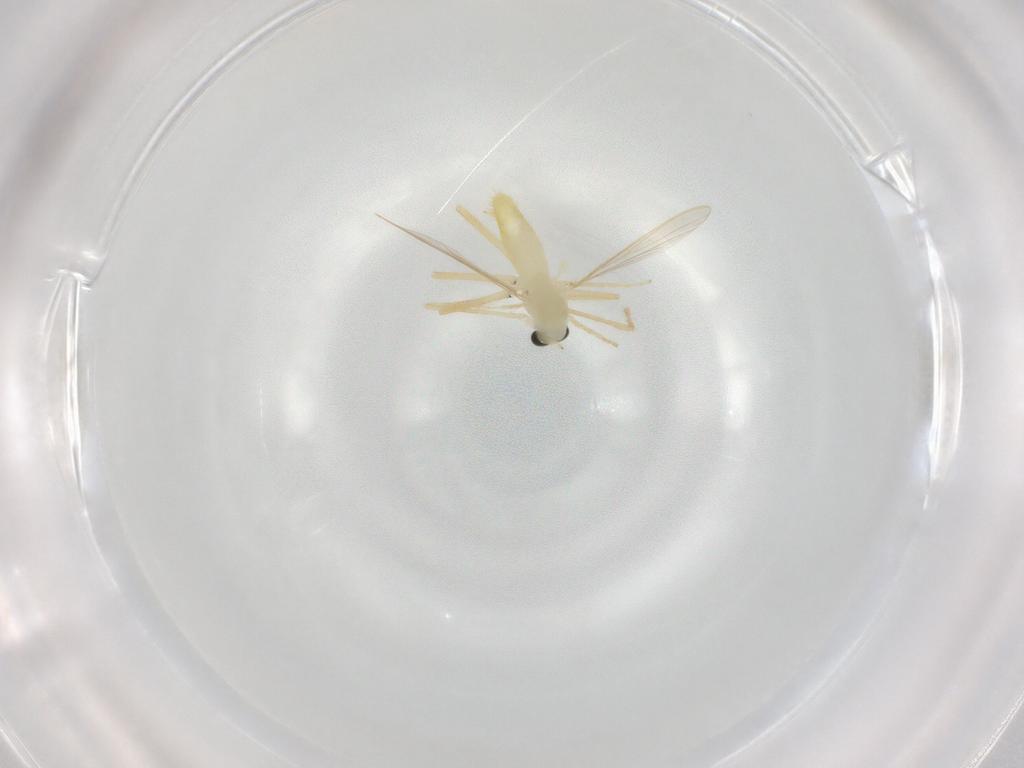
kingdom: Animalia
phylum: Arthropoda
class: Insecta
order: Diptera
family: Chironomidae
